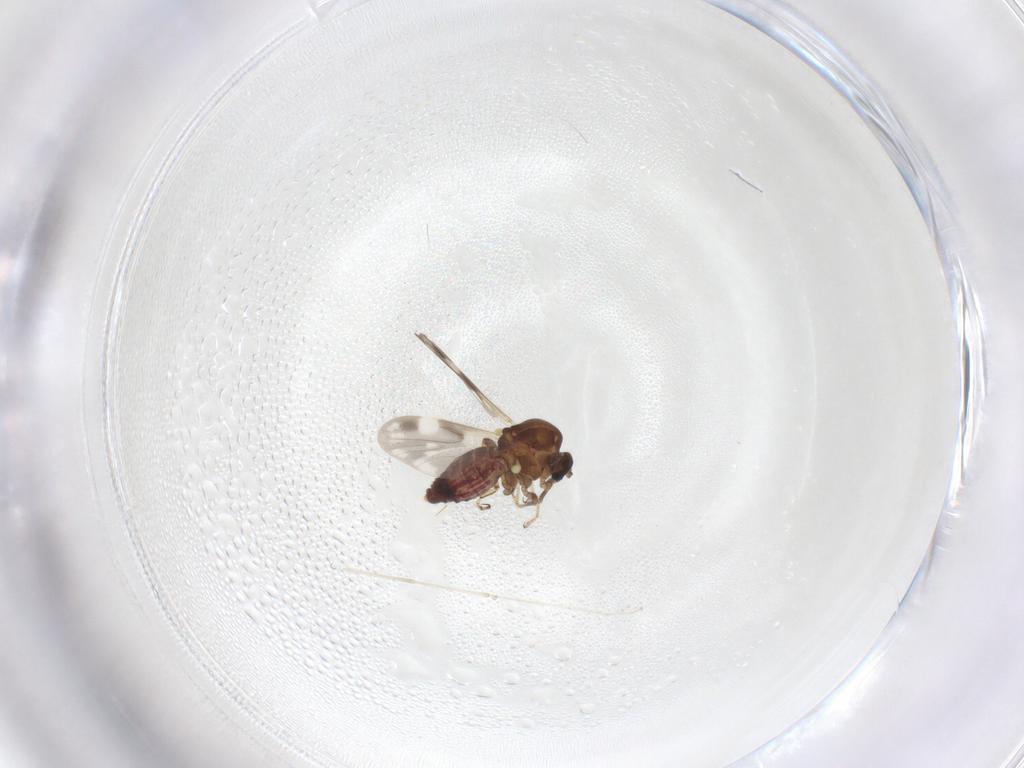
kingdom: Animalia
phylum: Arthropoda
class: Insecta
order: Diptera
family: Ceratopogonidae
